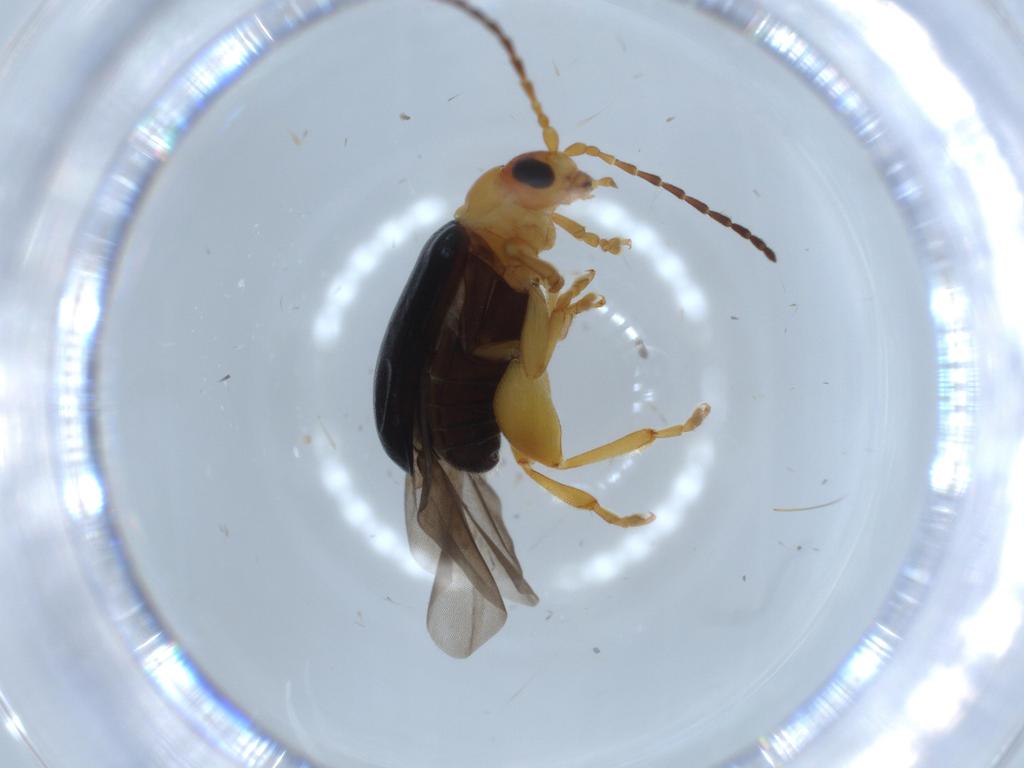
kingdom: Animalia
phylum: Arthropoda
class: Insecta
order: Coleoptera
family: Chrysomelidae
